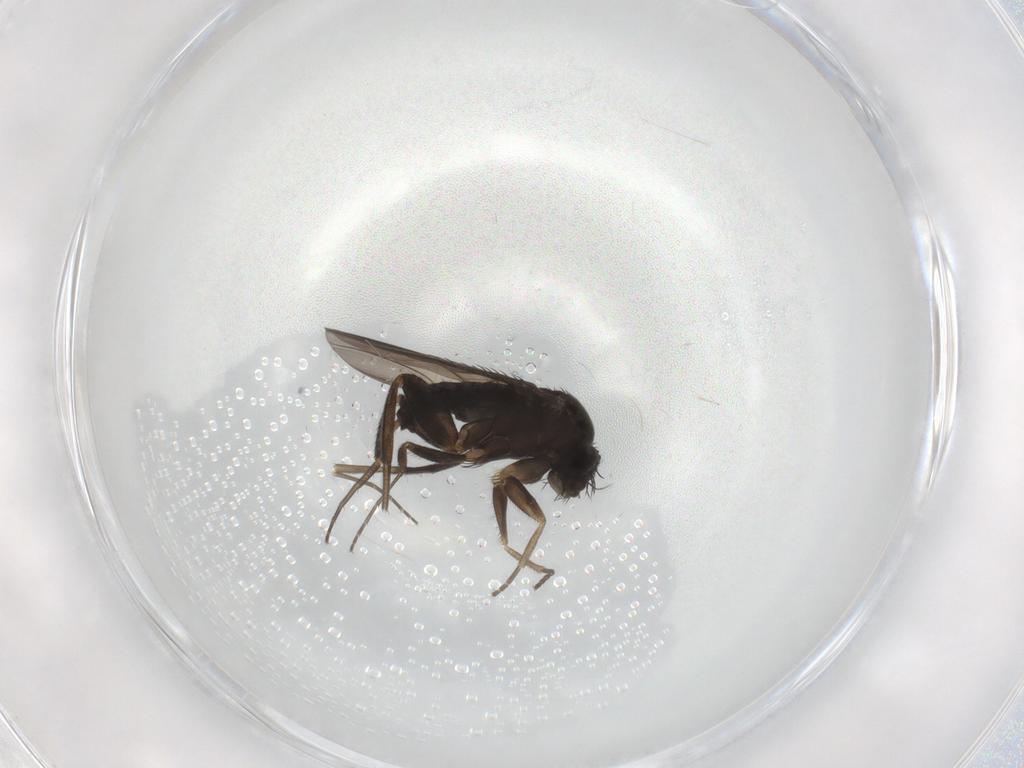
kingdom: Animalia
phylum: Arthropoda
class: Insecta
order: Diptera
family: Phoridae
